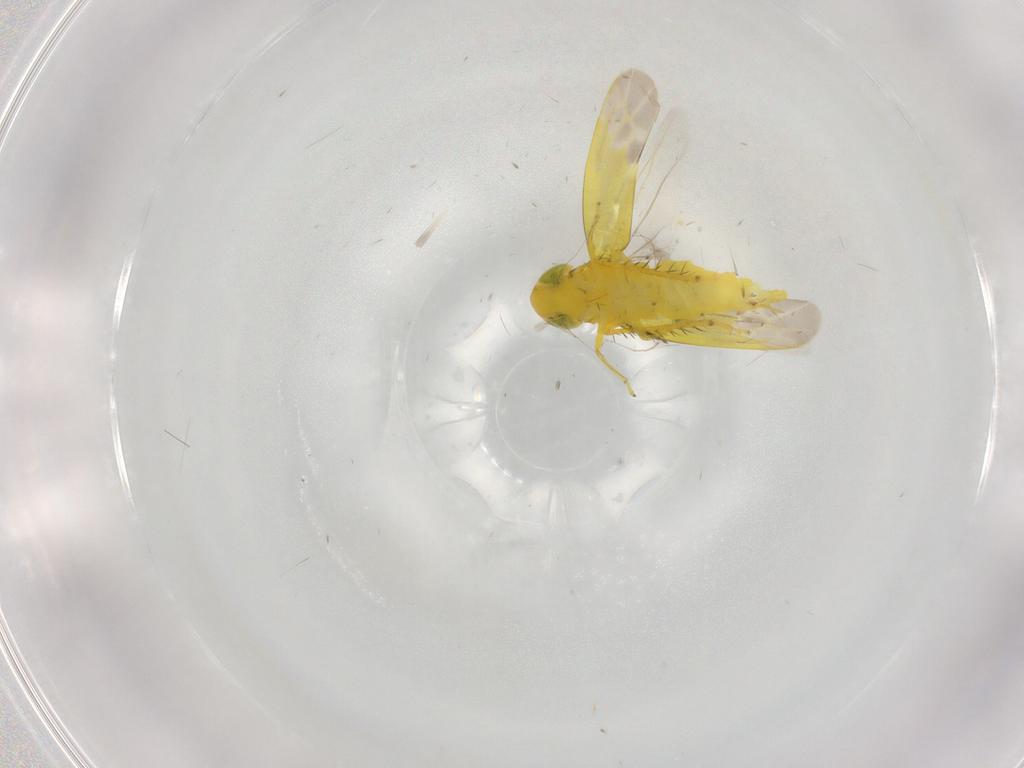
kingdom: Animalia
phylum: Arthropoda
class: Insecta
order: Hemiptera
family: Cicadellidae
